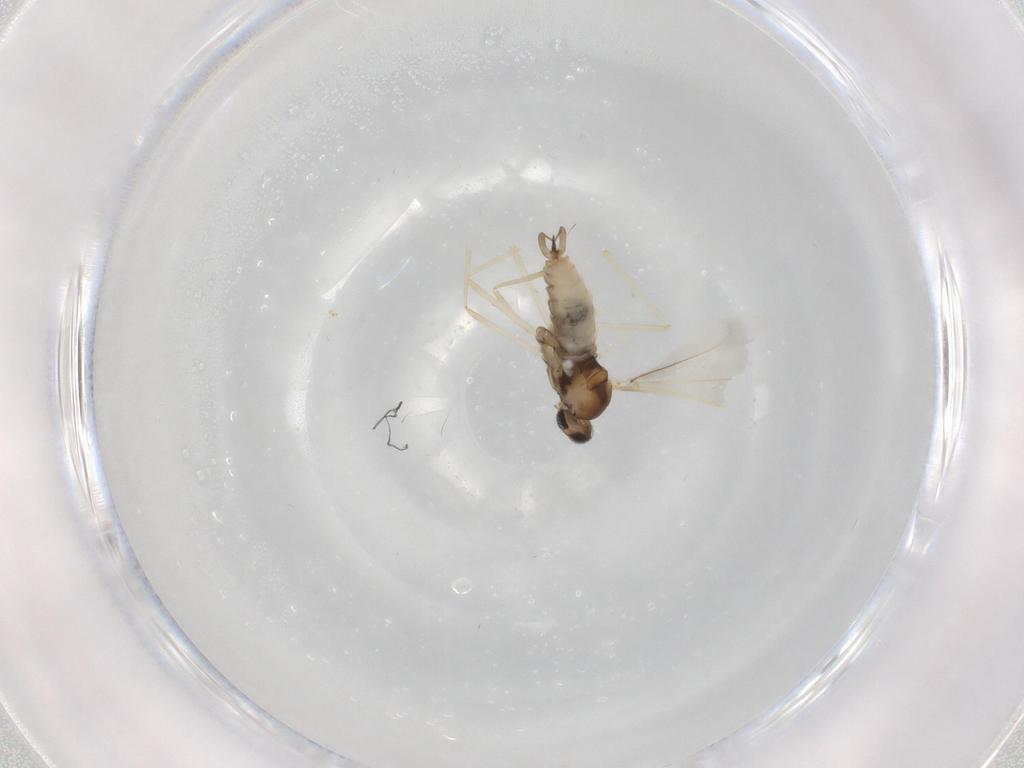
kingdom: Animalia
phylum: Arthropoda
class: Insecta
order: Diptera
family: Cecidomyiidae
